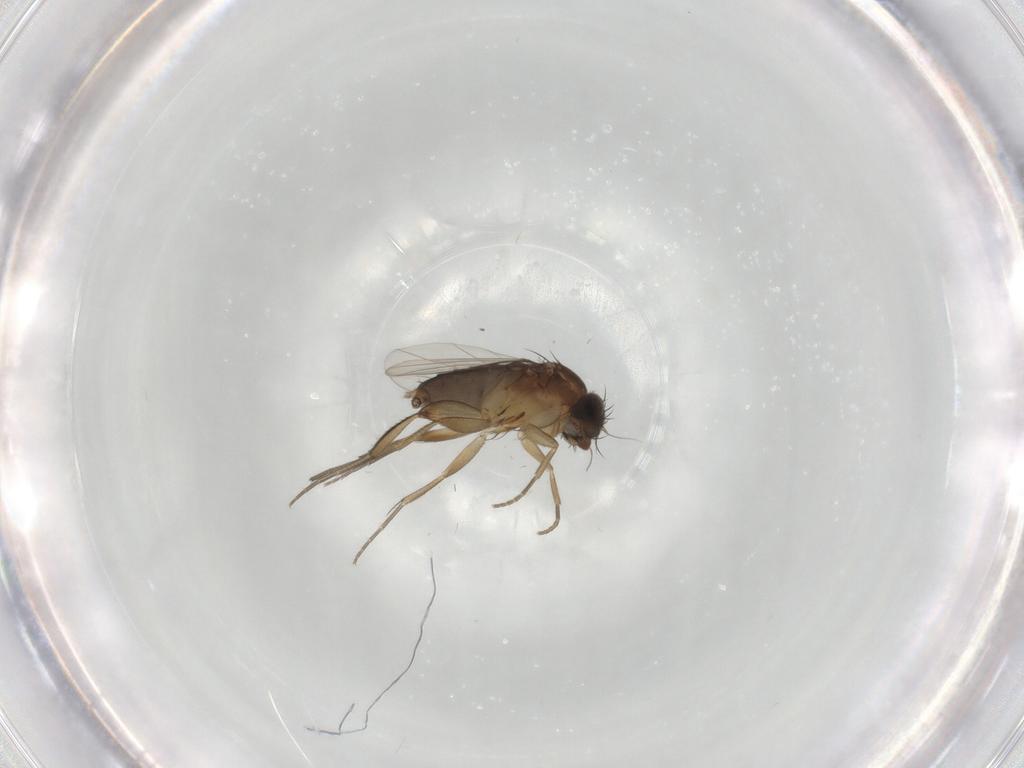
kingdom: Animalia
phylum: Arthropoda
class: Insecta
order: Diptera
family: Phoridae
